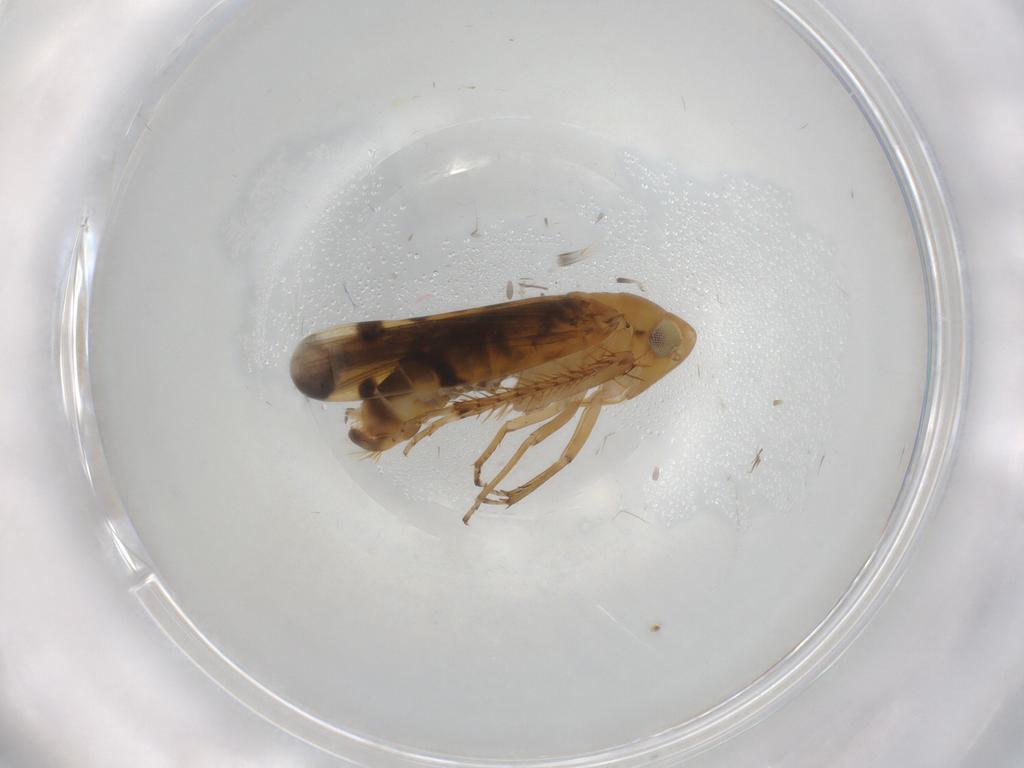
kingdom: Animalia
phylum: Arthropoda
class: Insecta
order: Hemiptera
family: Cicadellidae
